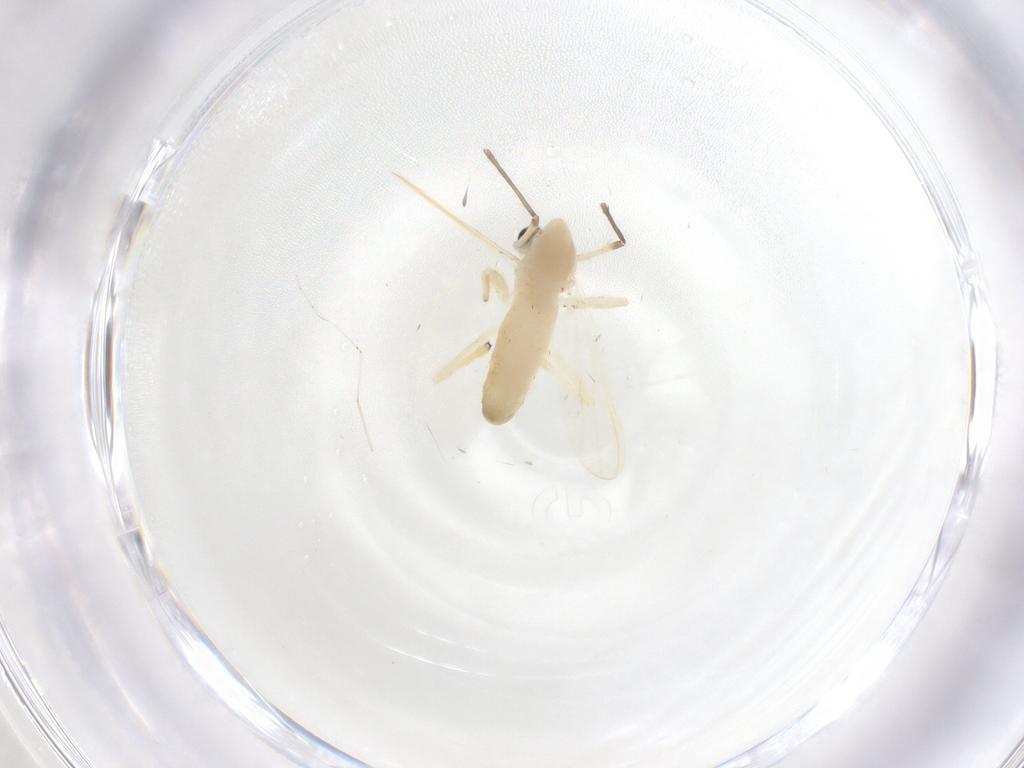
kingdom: Animalia
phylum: Arthropoda
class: Insecta
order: Diptera
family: Chironomidae
